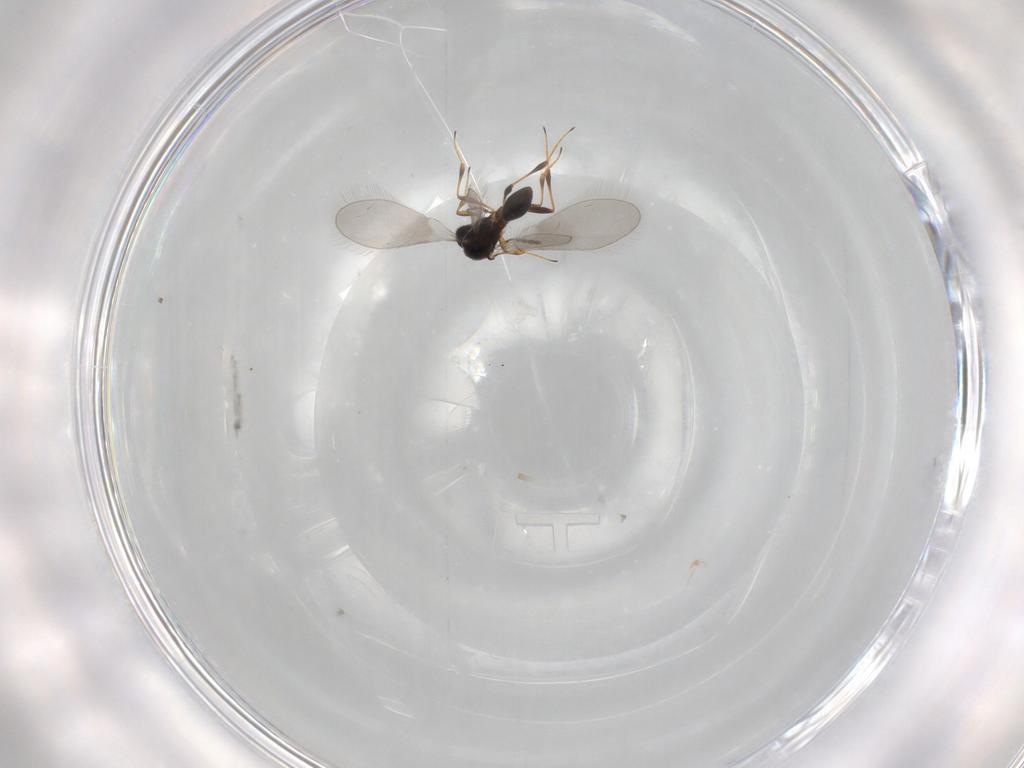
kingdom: Animalia
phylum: Arthropoda
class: Insecta
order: Hymenoptera
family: Platygastridae
